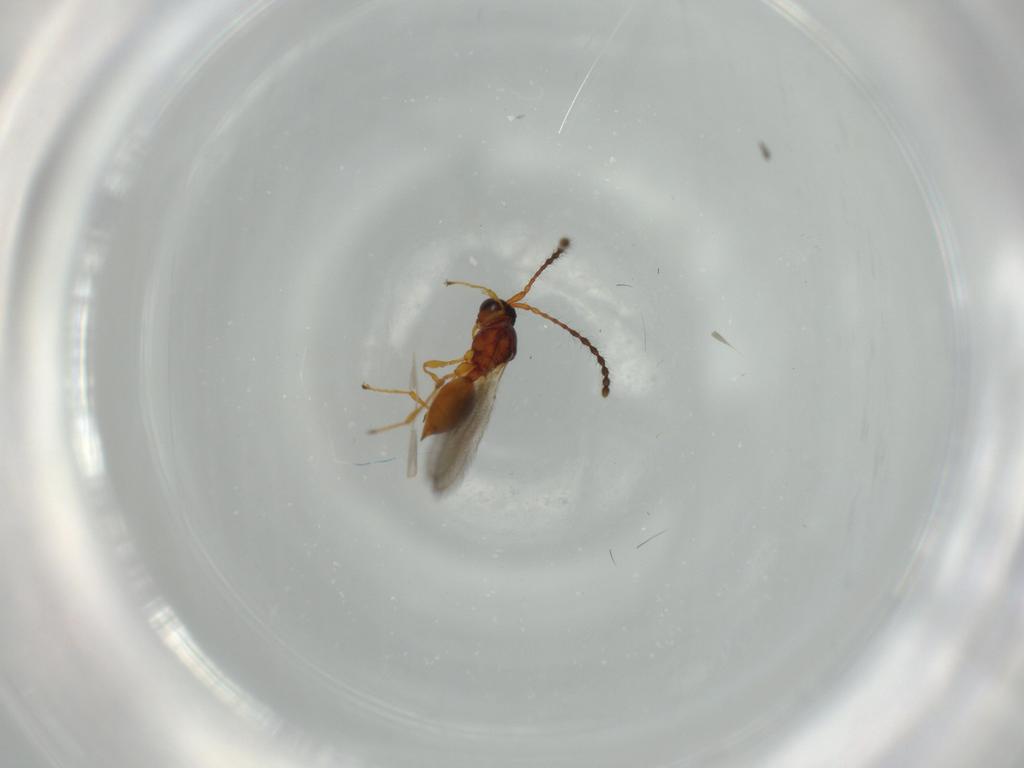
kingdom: Animalia
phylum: Arthropoda
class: Insecta
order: Hymenoptera
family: Diapriidae
